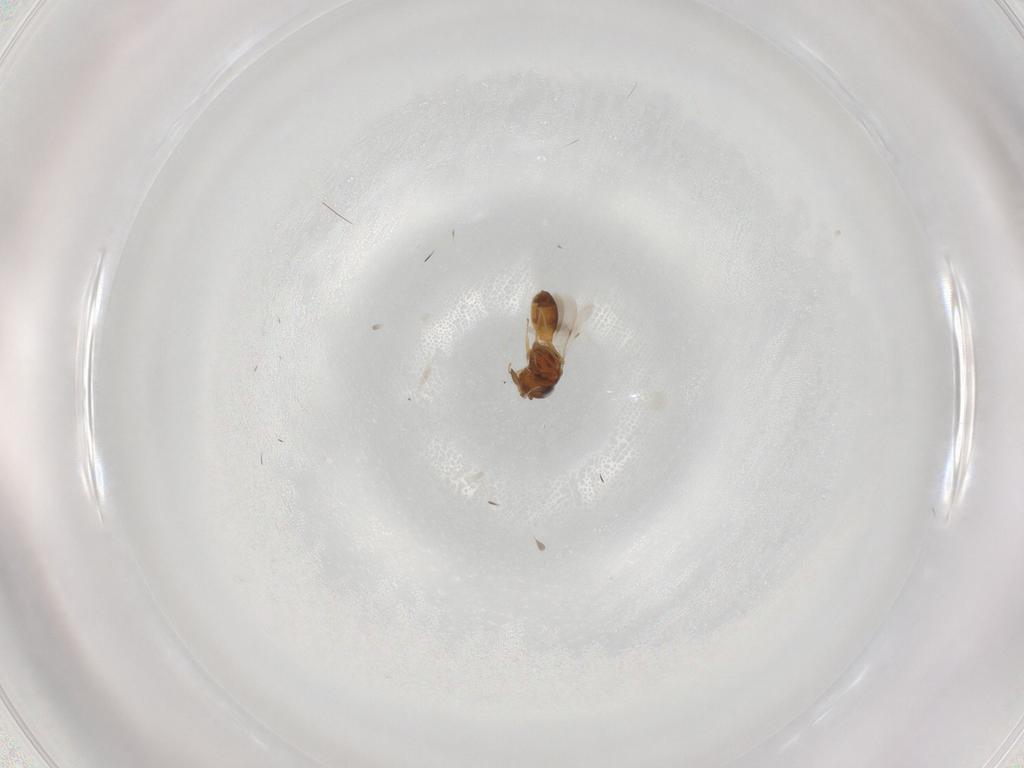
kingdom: Animalia
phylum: Arthropoda
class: Insecta
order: Hymenoptera
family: Scelionidae
